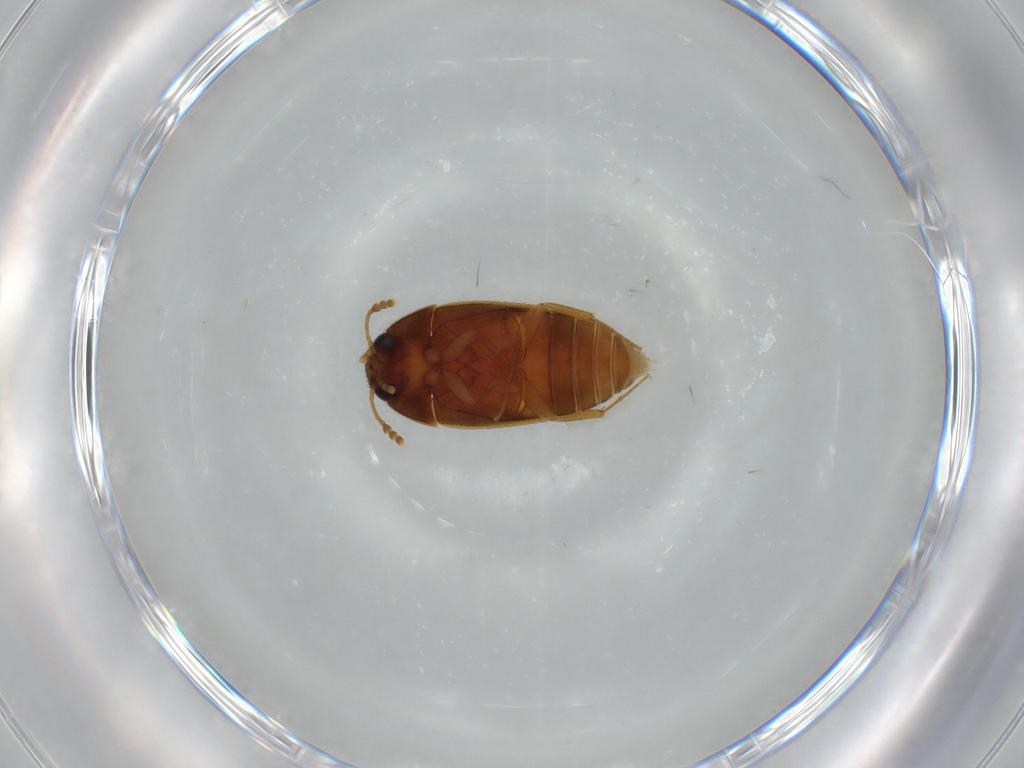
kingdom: Animalia
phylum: Arthropoda
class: Insecta
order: Coleoptera
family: Mycetophagidae
